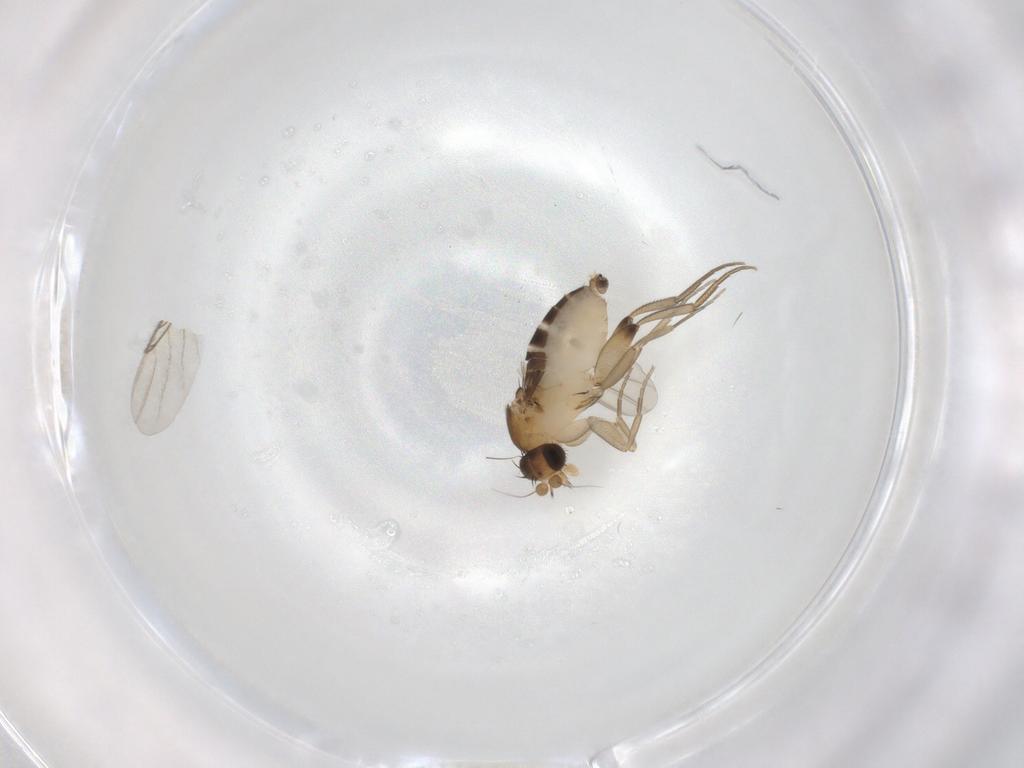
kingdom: Animalia
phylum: Arthropoda
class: Insecta
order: Diptera
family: Phoridae
